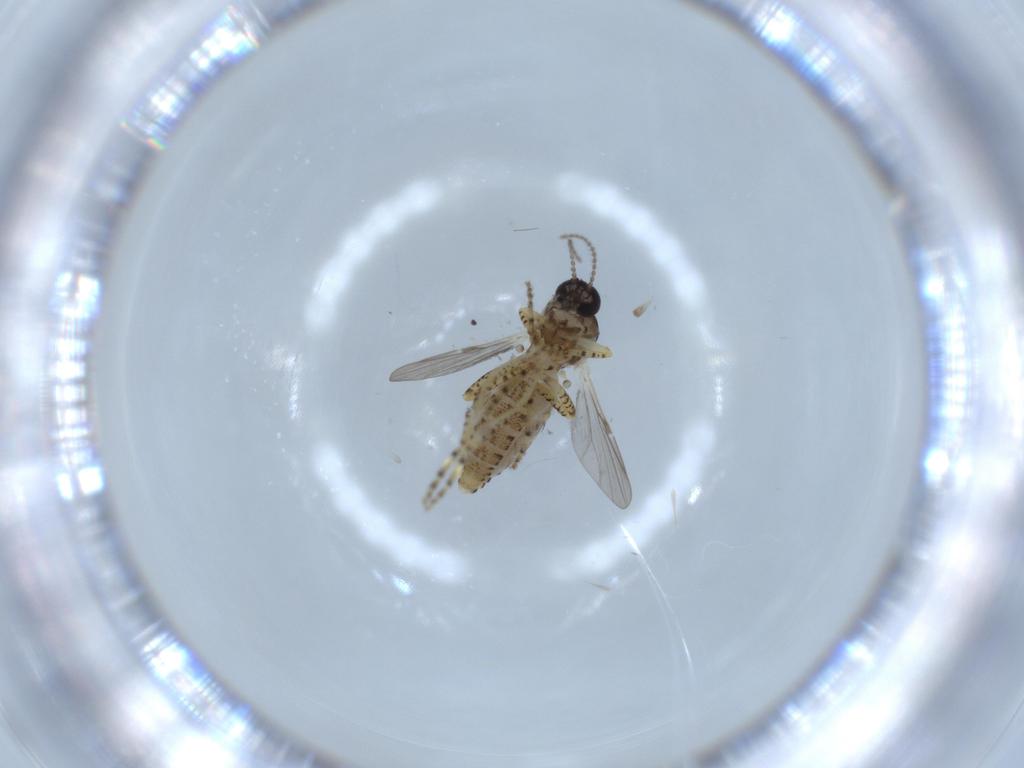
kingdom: Animalia
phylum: Arthropoda
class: Insecta
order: Diptera
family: Ceratopogonidae
